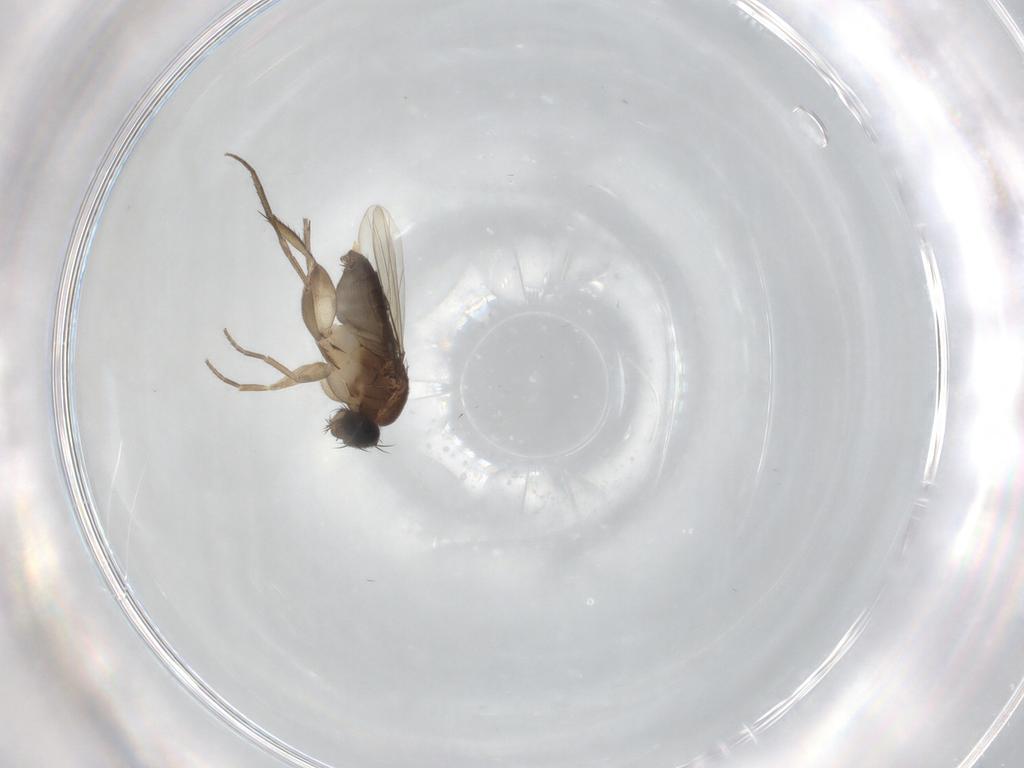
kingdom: Animalia
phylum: Arthropoda
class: Insecta
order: Diptera
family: Phoridae
